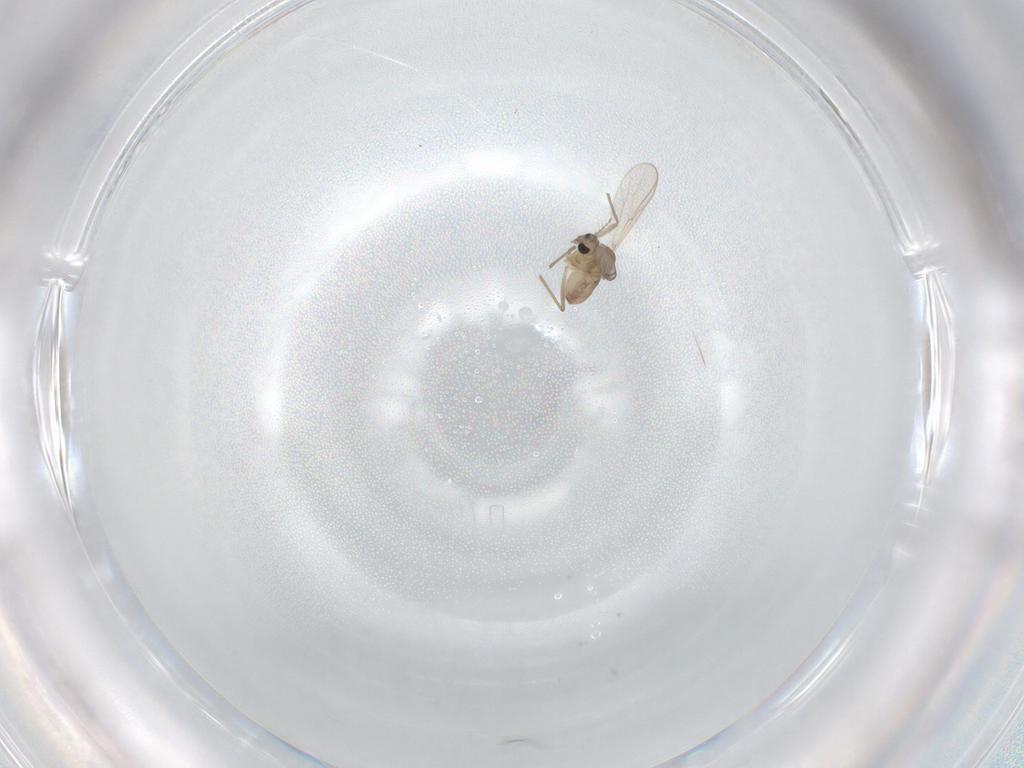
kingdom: Animalia
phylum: Arthropoda
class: Insecta
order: Diptera
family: Chironomidae
